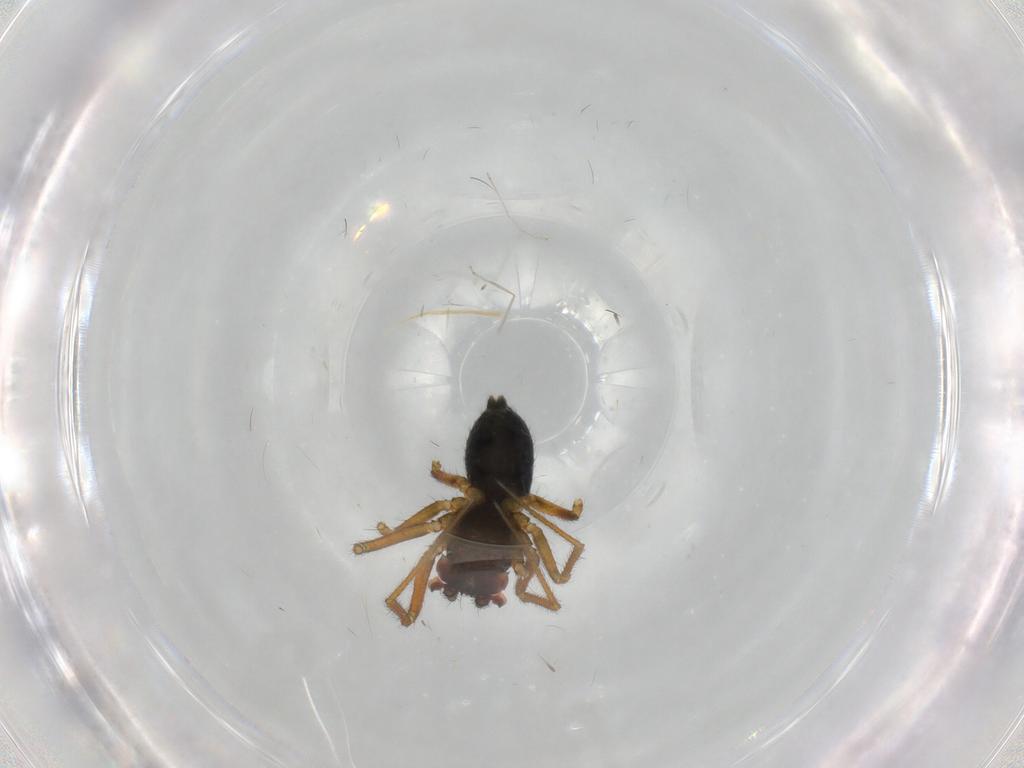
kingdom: Animalia
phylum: Arthropoda
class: Arachnida
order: Araneae
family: Linyphiidae
